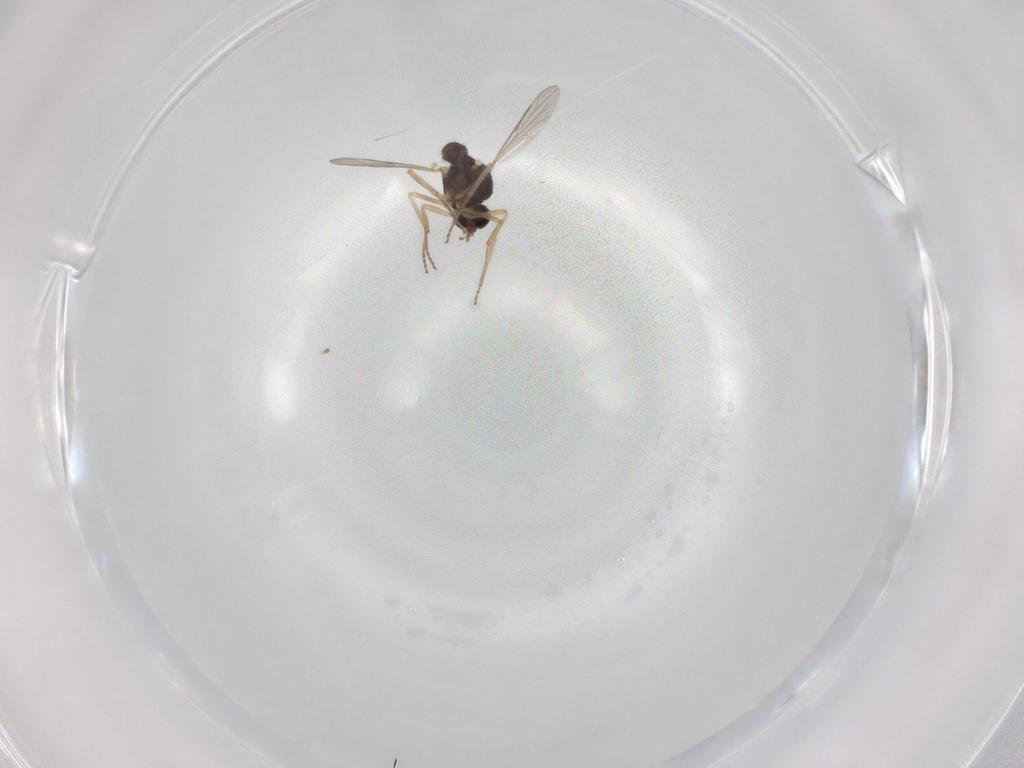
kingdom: Animalia
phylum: Arthropoda
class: Insecta
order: Diptera
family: Ceratopogonidae
